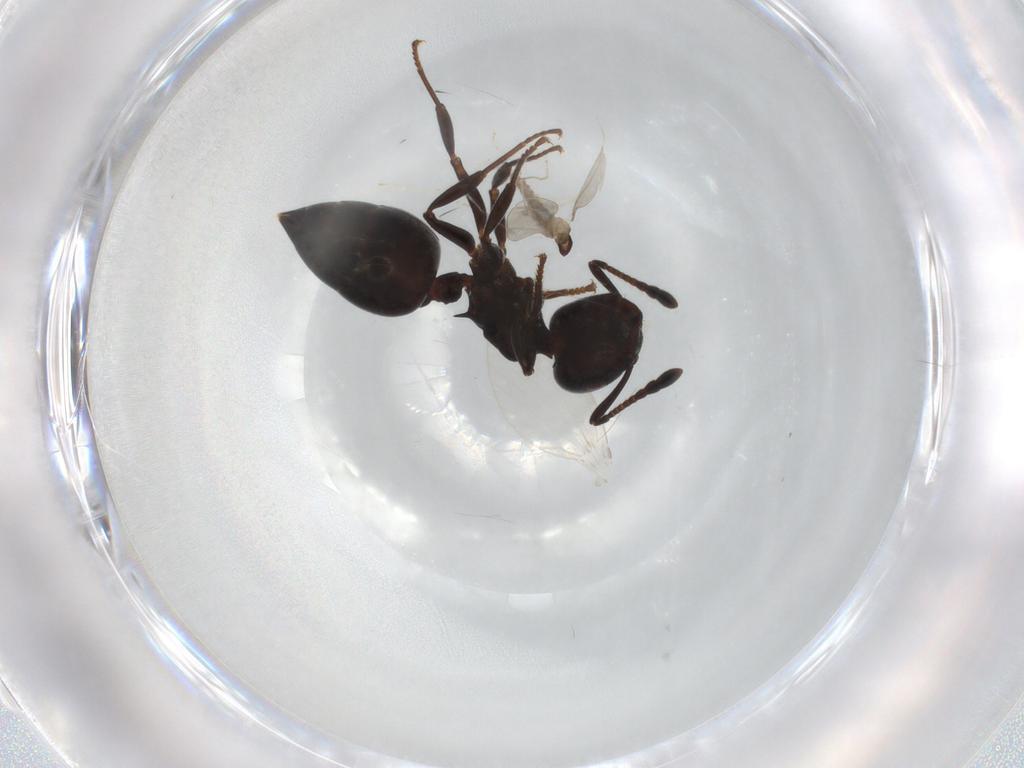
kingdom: Animalia
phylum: Arthropoda
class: Insecta
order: Diptera
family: Cecidomyiidae
